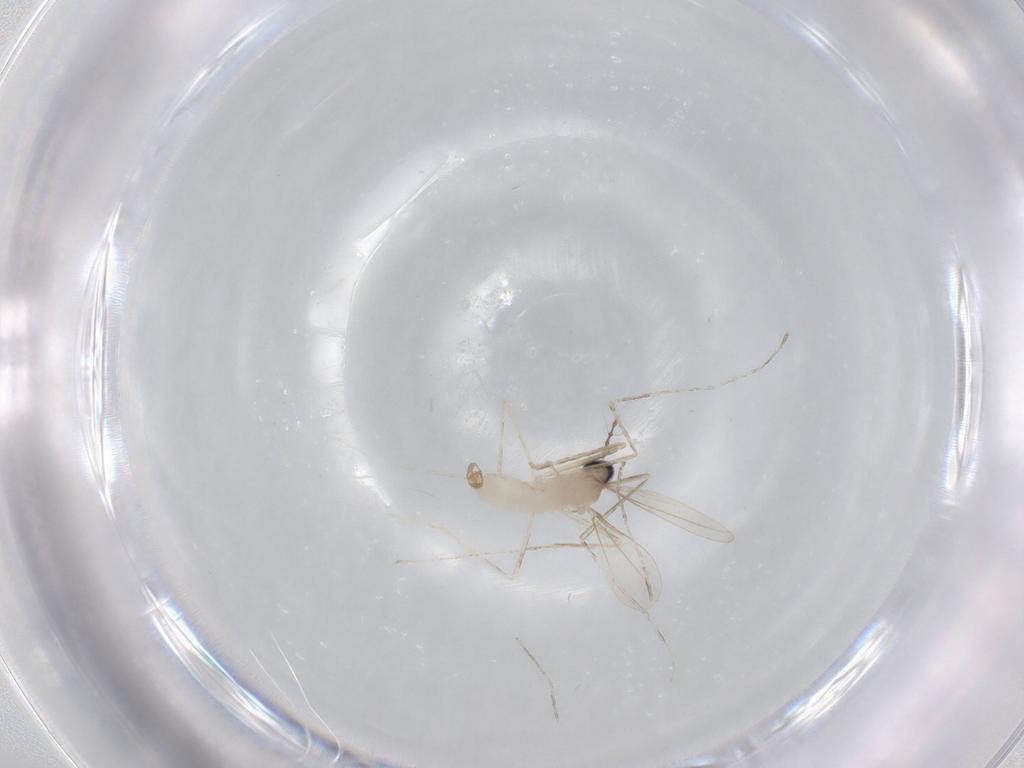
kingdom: Animalia
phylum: Arthropoda
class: Insecta
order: Diptera
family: Cecidomyiidae
